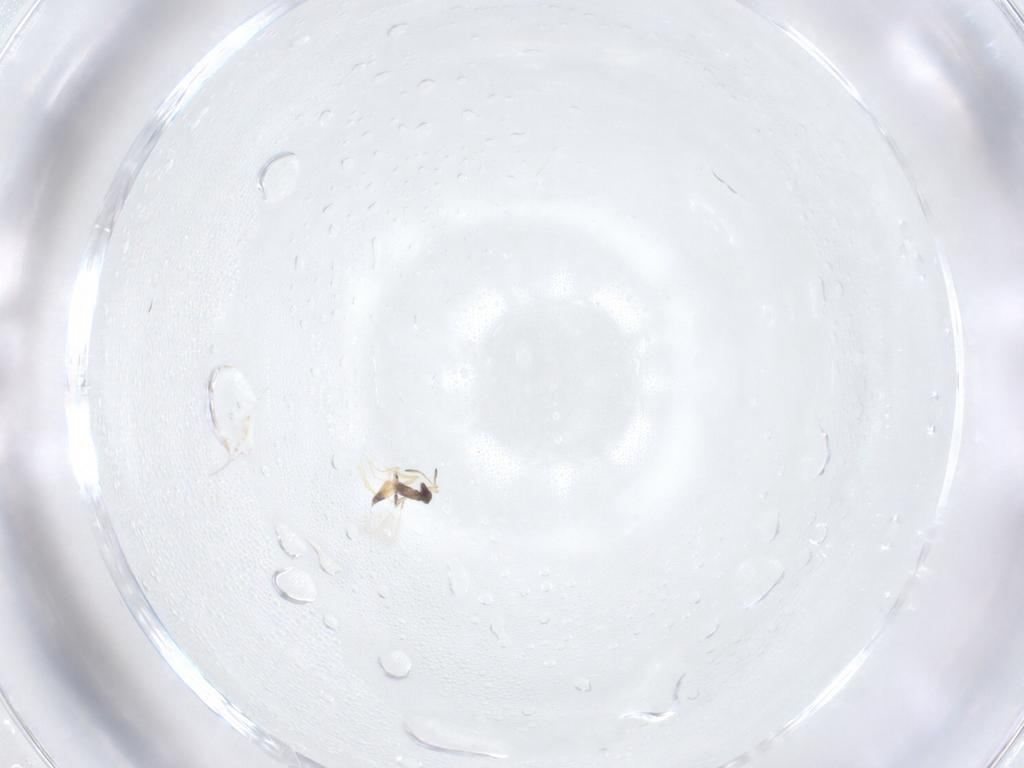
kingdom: Animalia
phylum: Arthropoda
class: Insecta
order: Hymenoptera
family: Mymaridae
